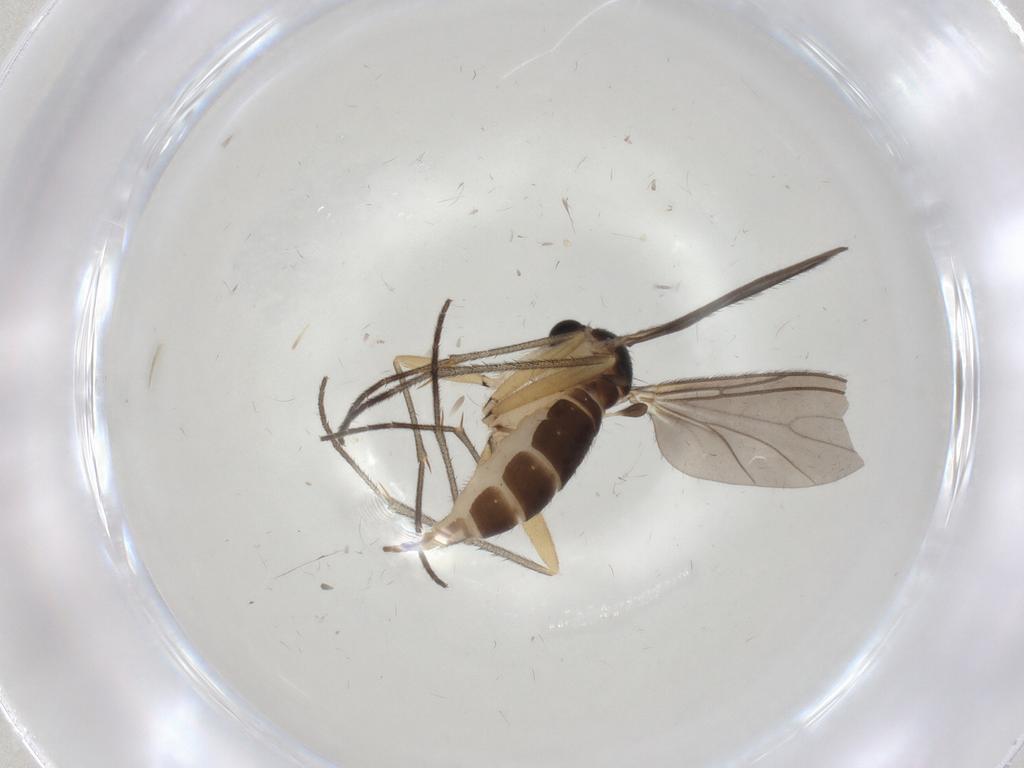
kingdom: Animalia
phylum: Arthropoda
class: Insecta
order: Diptera
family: Sciaridae
